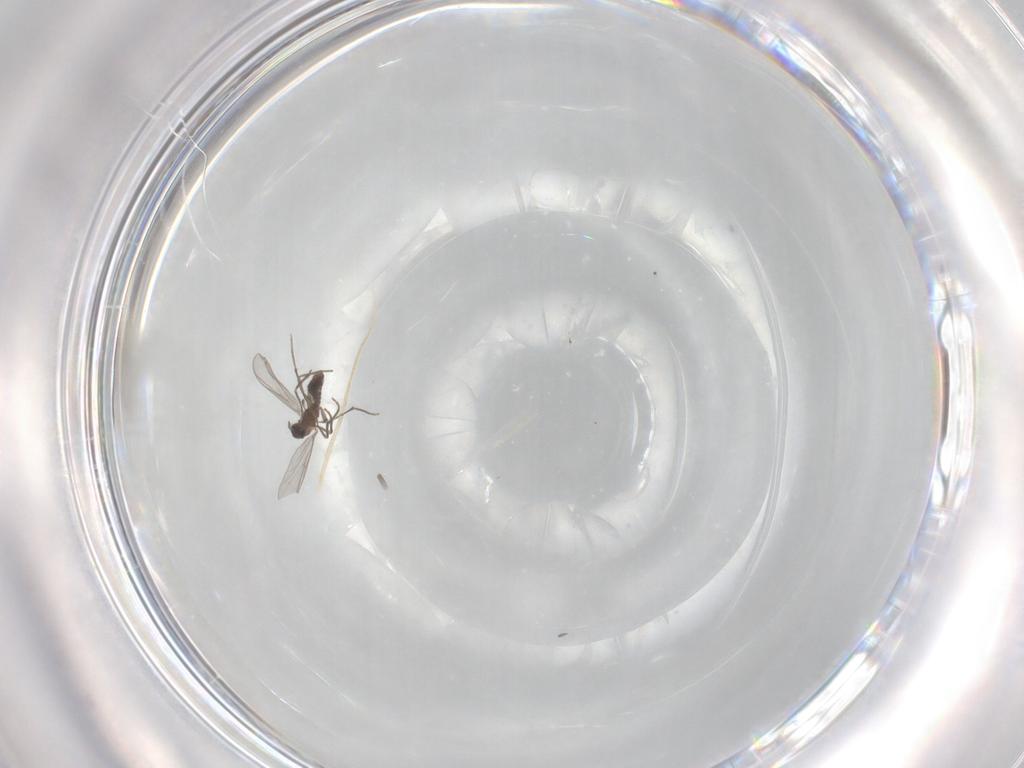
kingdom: Animalia
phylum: Arthropoda
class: Insecta
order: Diptera
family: Chironomidae
